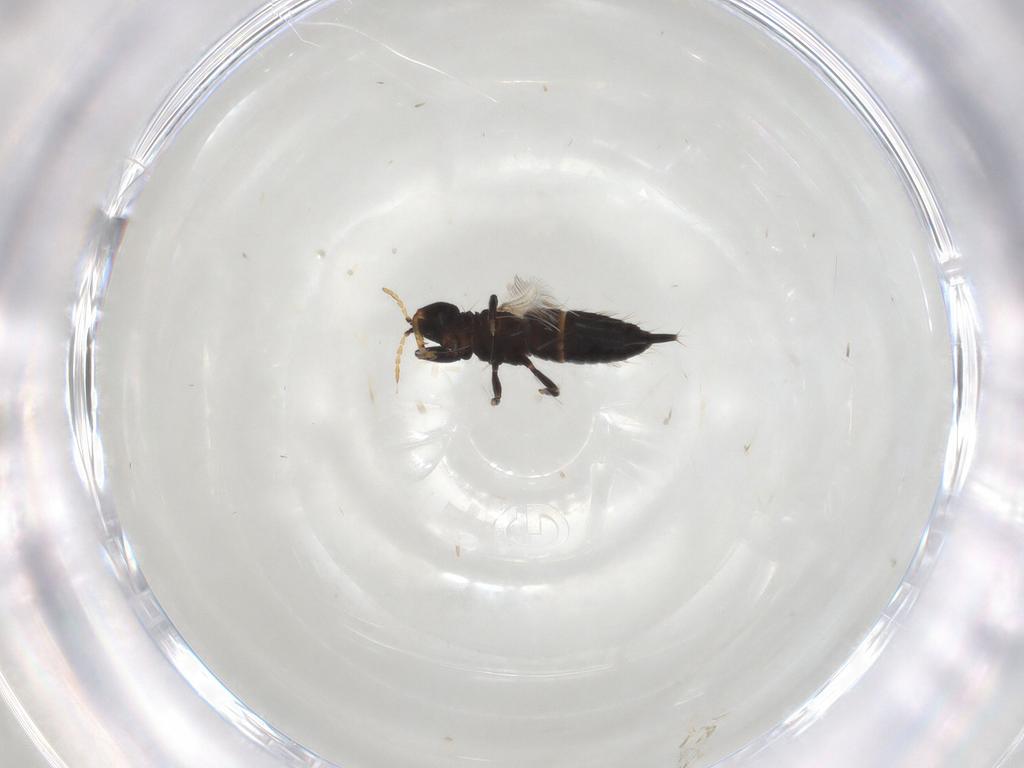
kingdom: Animalia
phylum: Arthropoda
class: Insecta
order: Thysanoptera
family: Phlaeothripidae
